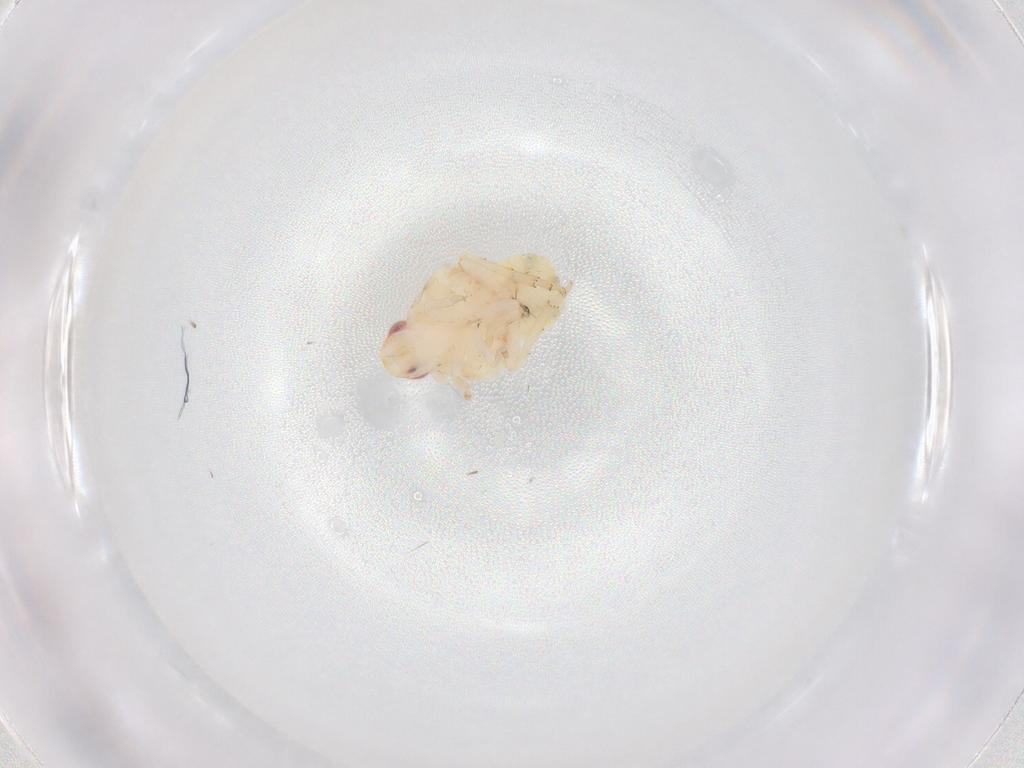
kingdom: Animalia
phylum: Arthropoda
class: Insecta
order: Hemiptera
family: Flatidae
